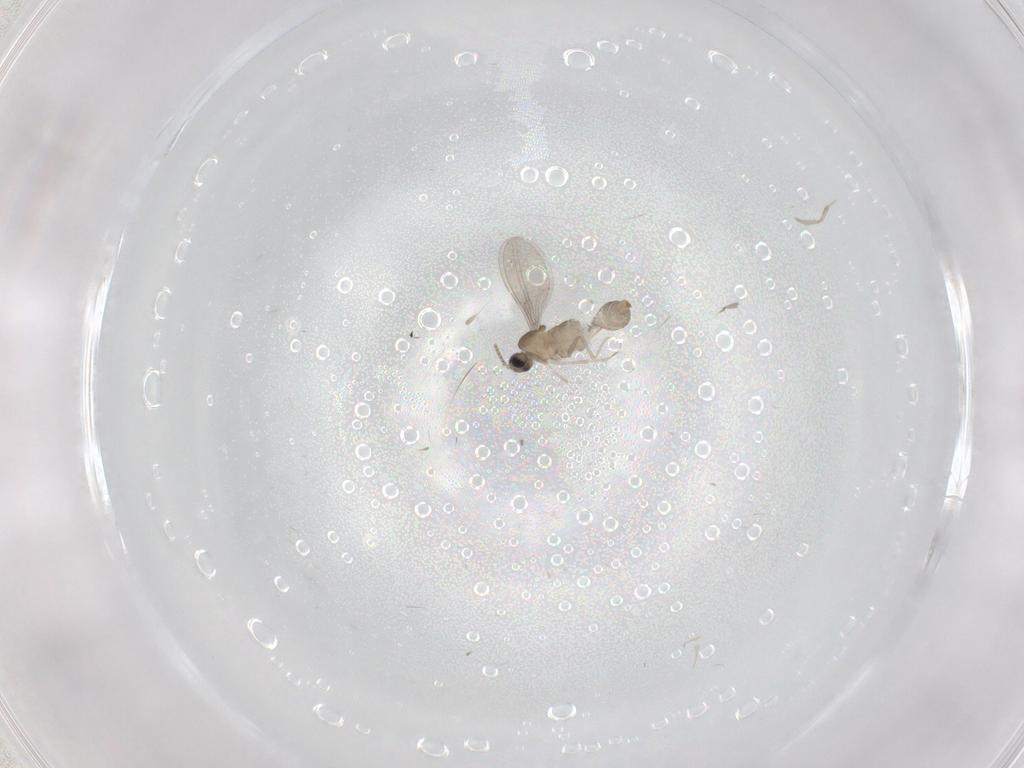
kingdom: Animalia
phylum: Arthropoda
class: Insecta
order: Diptera
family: Cecidomyiidae
